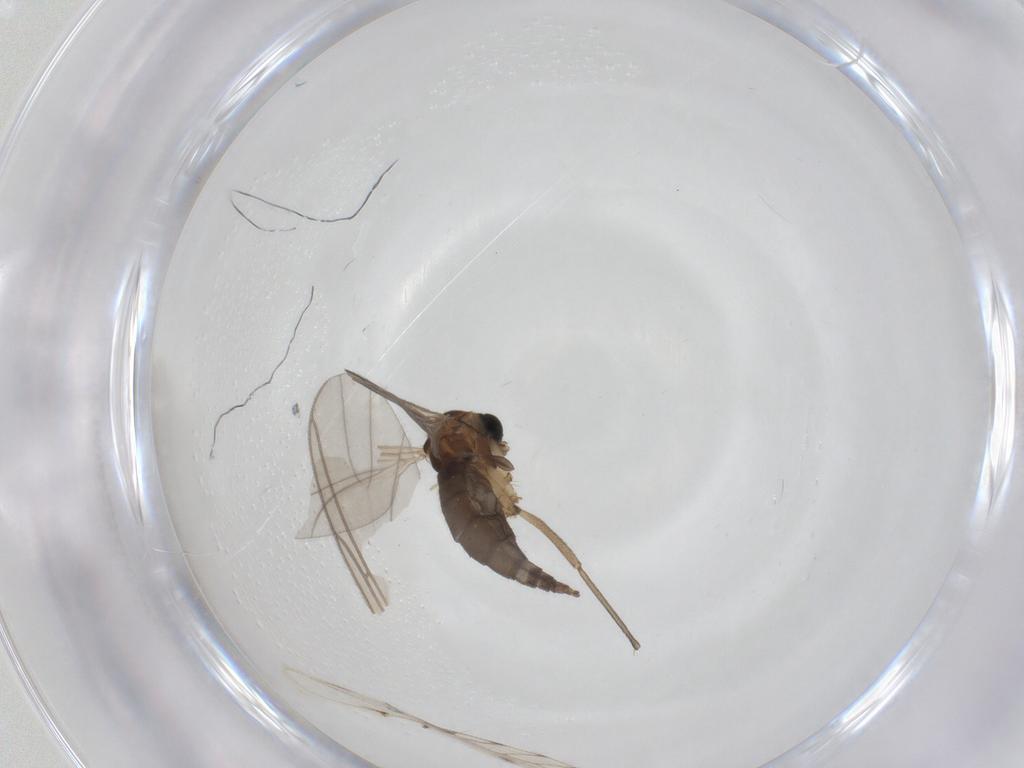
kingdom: Animalia
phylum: Arthropoda
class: Insecta
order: Diptera
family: Sciaridae
